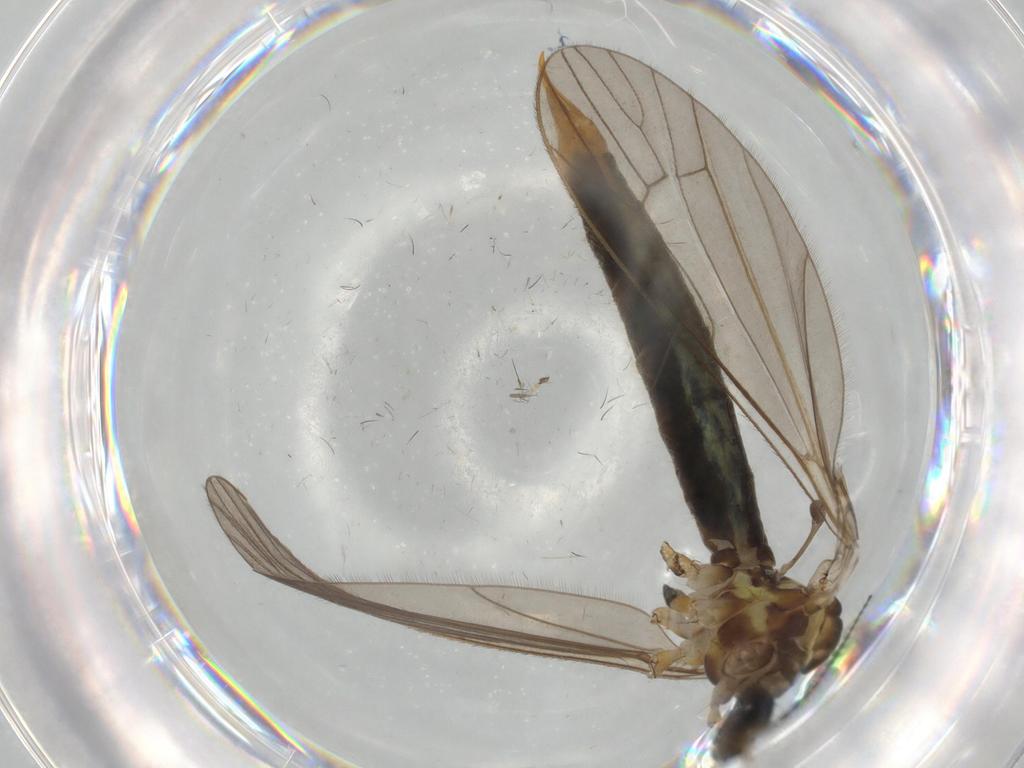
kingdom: Animalia
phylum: Arthropoda
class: Insecta
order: Diptera
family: Limoniidae
